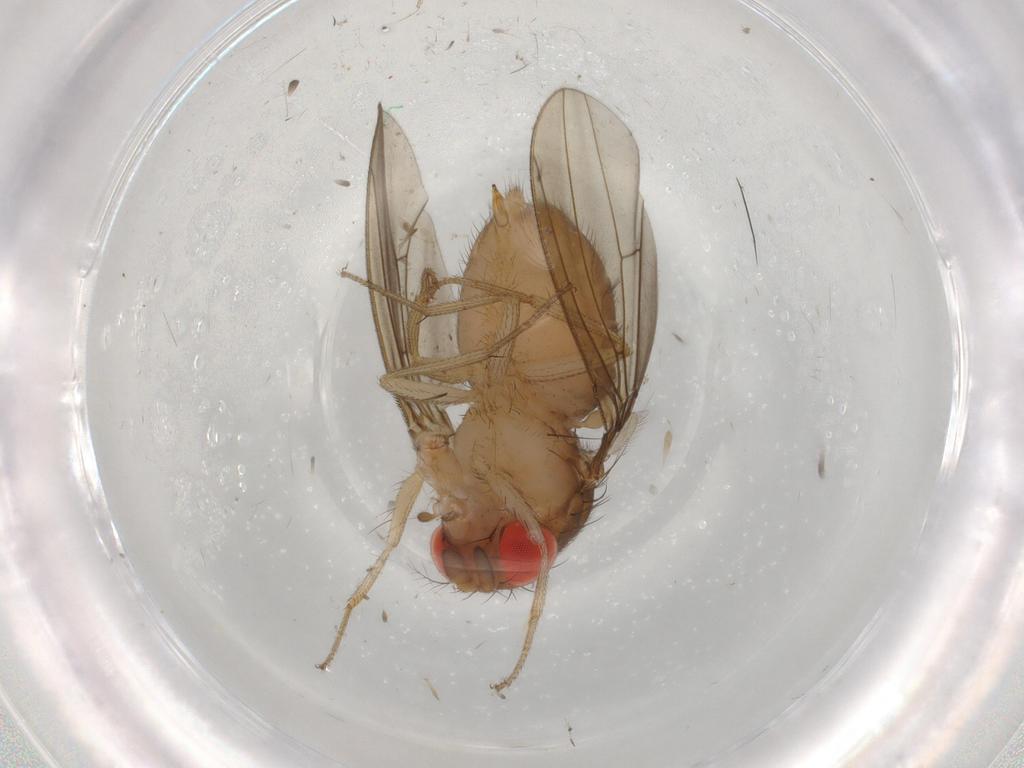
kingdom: Animalia
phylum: Arthropoda
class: Insecta
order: Diptera
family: Drosophilidae
